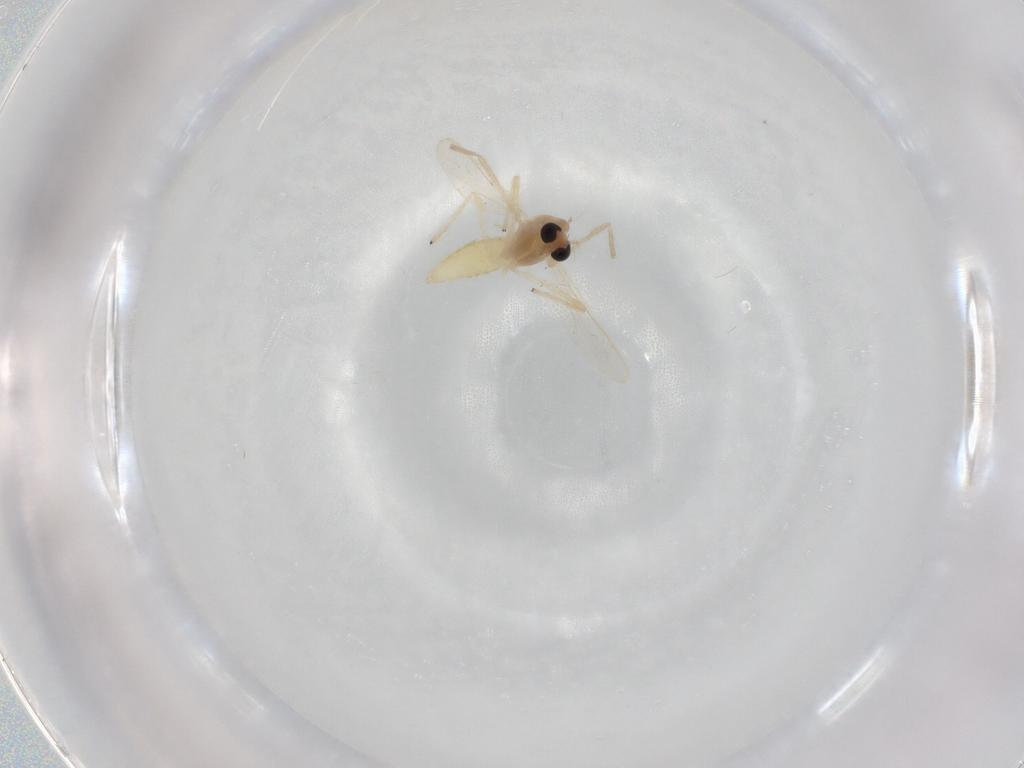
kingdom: Animalia
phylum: Arthropoda
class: Insecta
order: Diptera
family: Chironomidae
